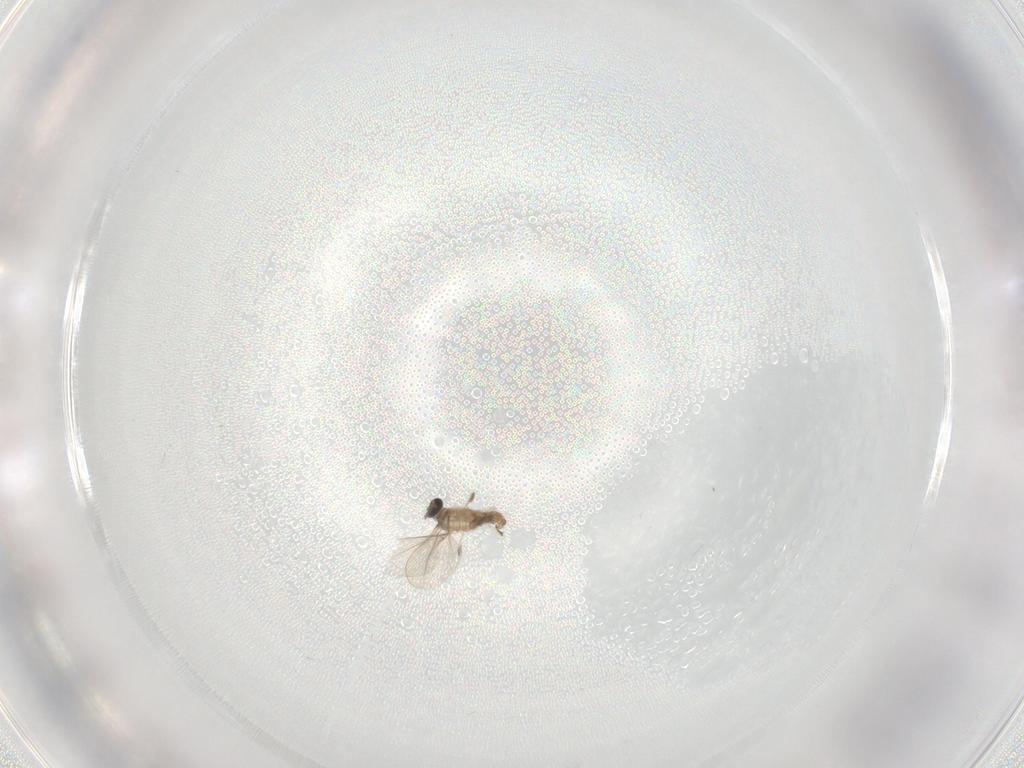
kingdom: Animalia
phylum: Arthropoda
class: Insecta
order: Diptera
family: Cecidomyiidae
